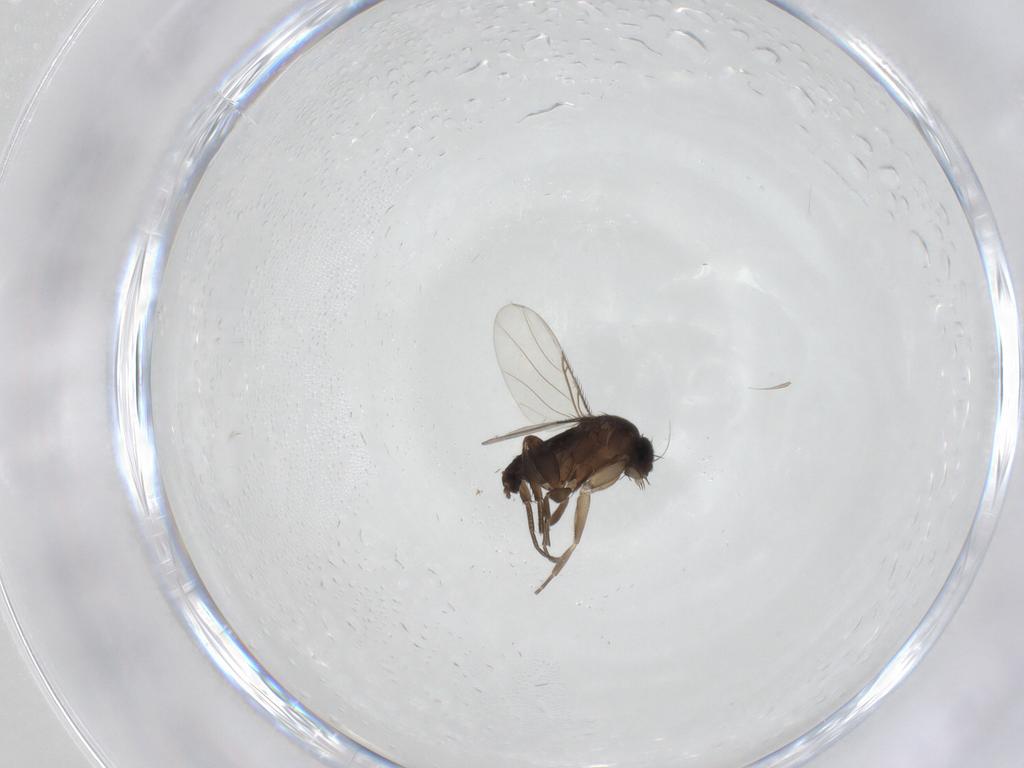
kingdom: Animalia
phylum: Arthropoda
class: Insecta
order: Diptera
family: Phoridae
